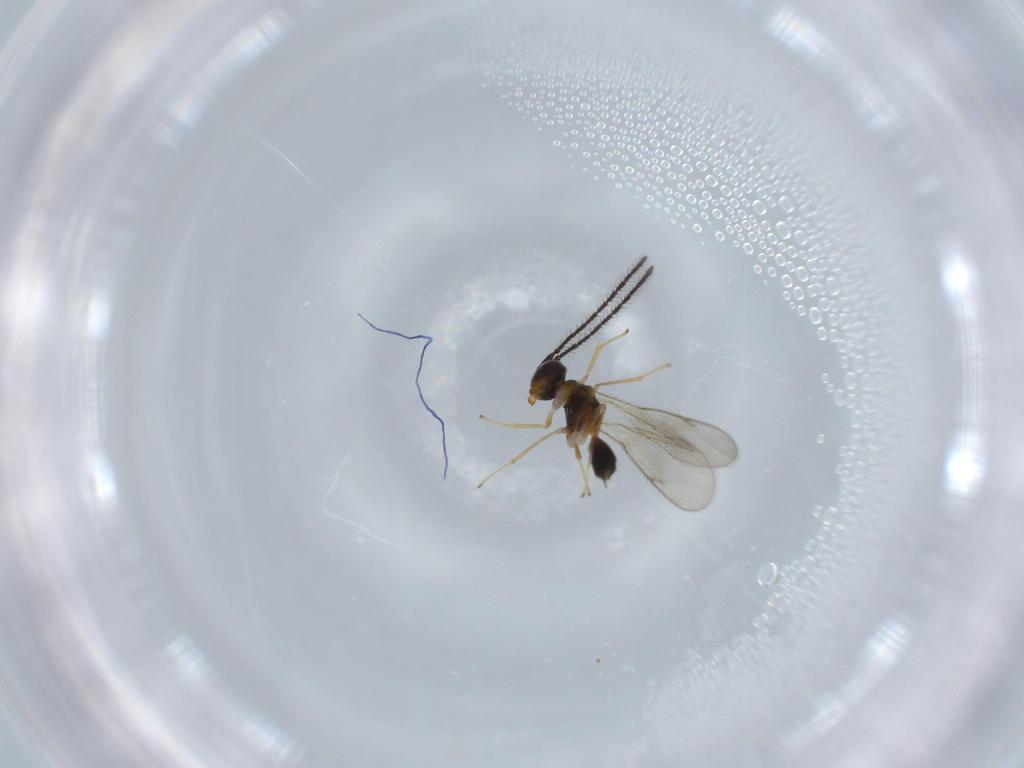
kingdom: Animalia
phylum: Arthropoda
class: Insecta
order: Hymenoptera
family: Diparidae
